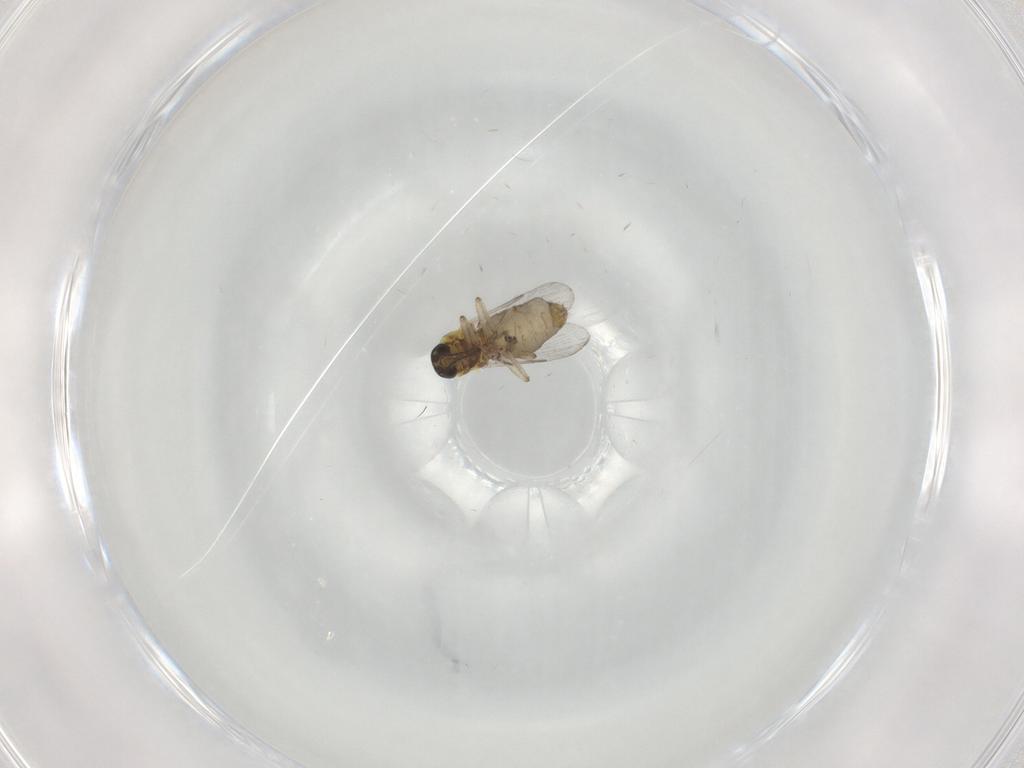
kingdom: Animalia
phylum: Arthropoda
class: Insecta
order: Diptera
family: Ceratopogonidae
